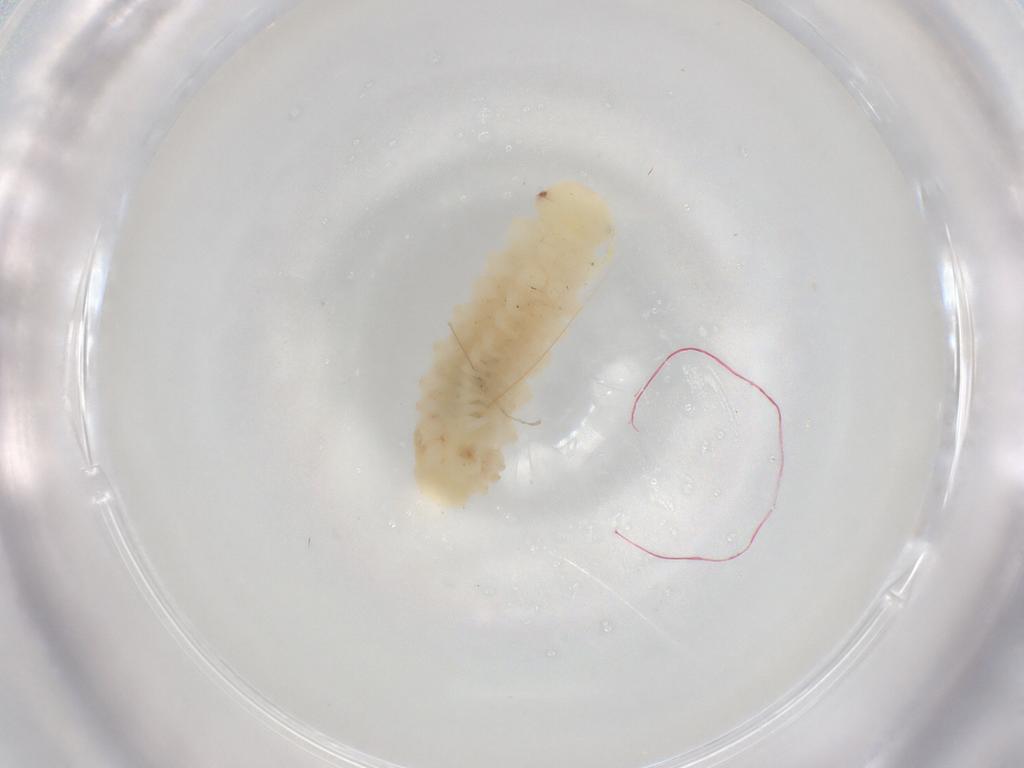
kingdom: Animalia
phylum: Arthropoda
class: Diplopoda
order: Polyxenida
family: Polyxenidae
